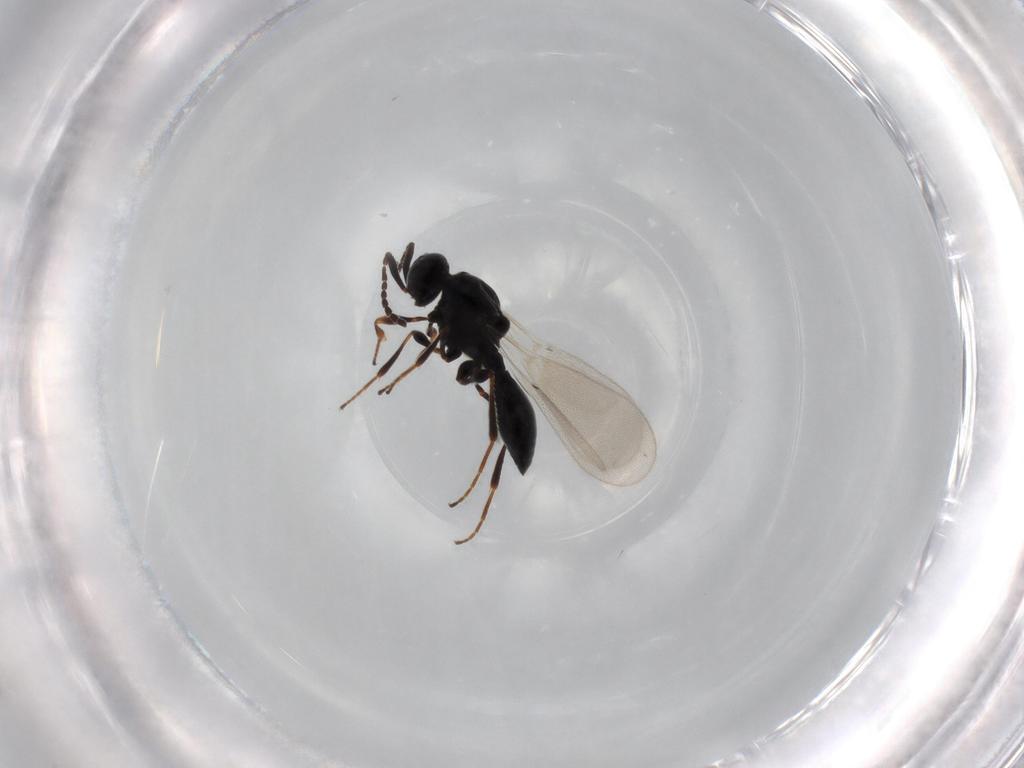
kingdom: Animalia
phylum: Arthropoda
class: Insecta
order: Diptera
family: Mythicomyiidae
